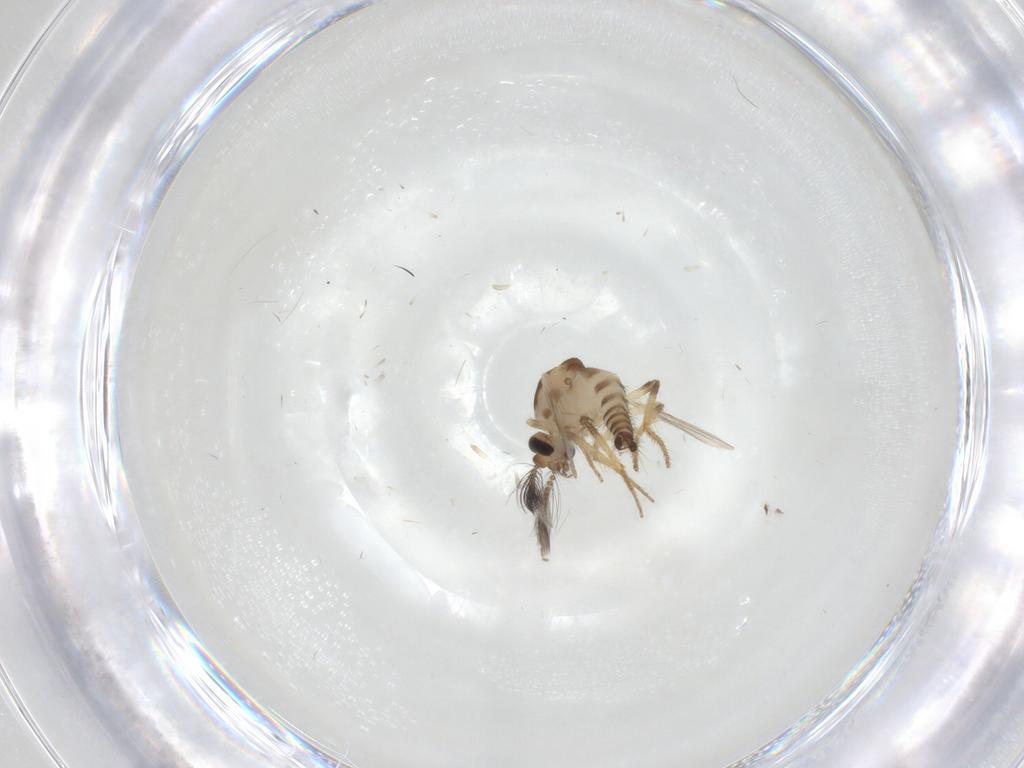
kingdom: Animalia
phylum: Arthropoda
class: Insecta
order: Diptera
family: Ceratopogonidae
